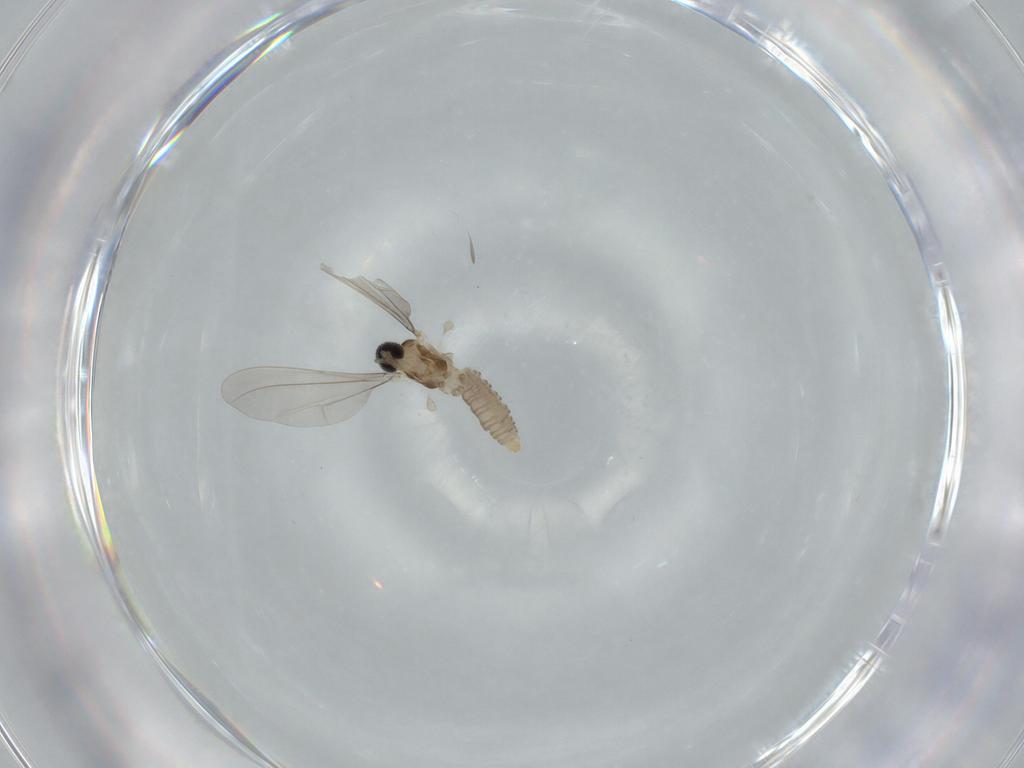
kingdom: Animalia
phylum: Arthropoda
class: Insecta
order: Diptera
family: Cecidomyiidae
